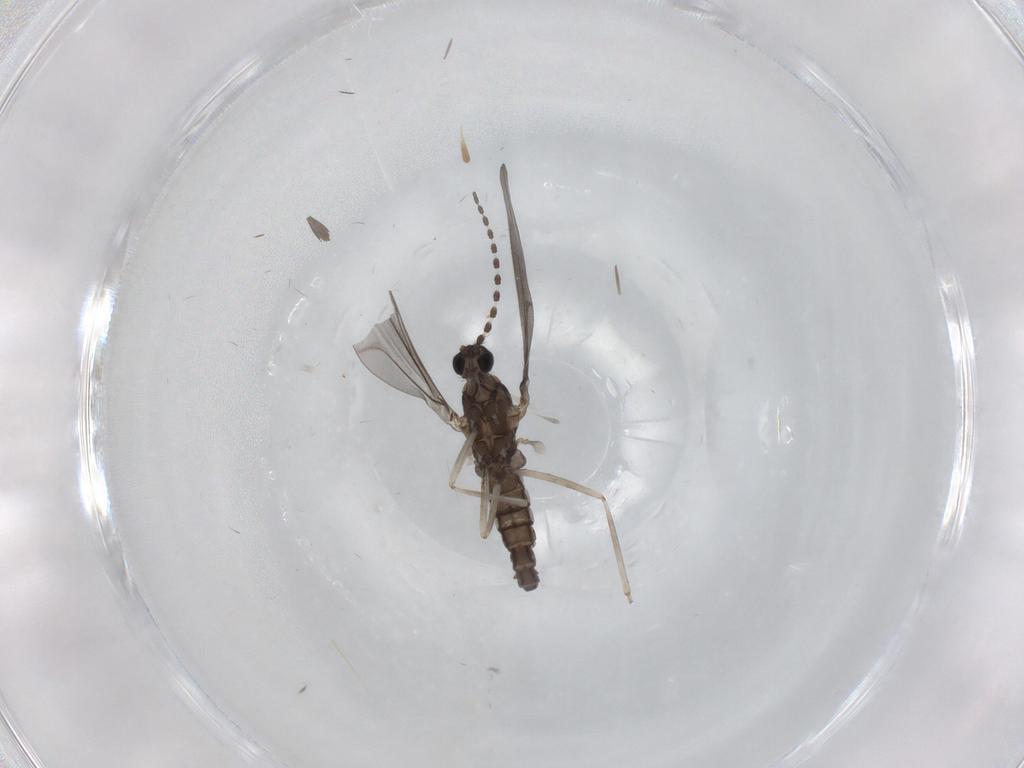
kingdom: Animalia
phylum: Arthropoda
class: Insecta
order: Diptera
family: Cecidomyiidae
